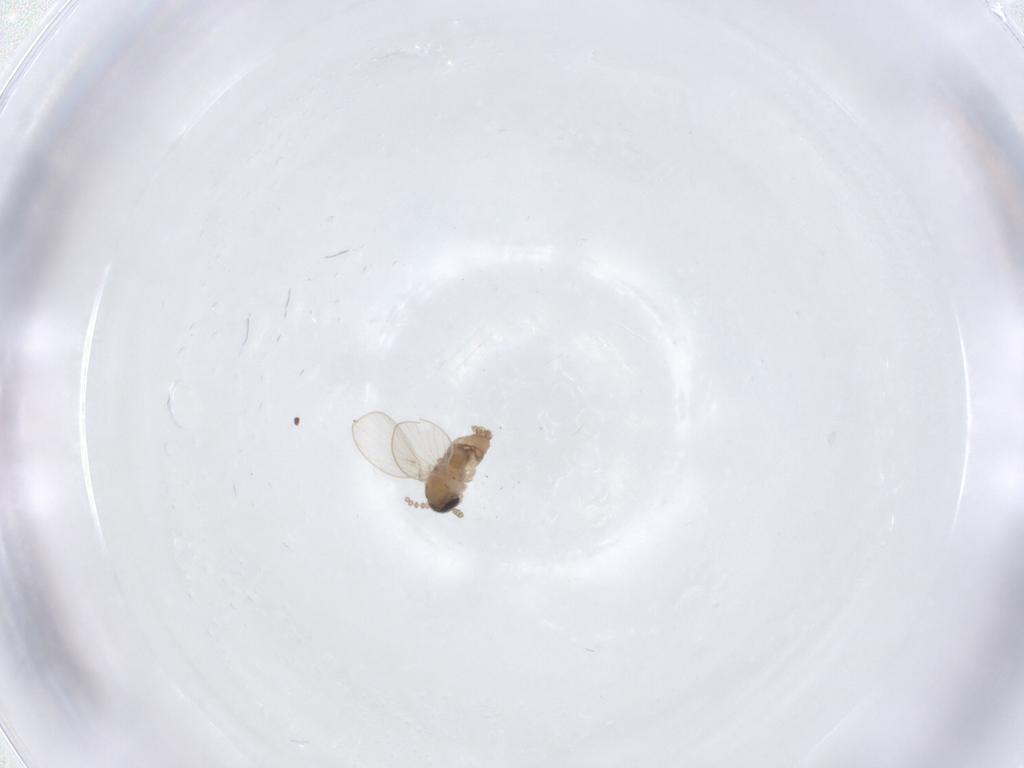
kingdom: Animalia
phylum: Arthropoda
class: Insecta
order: Diptera
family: Psychodidae
